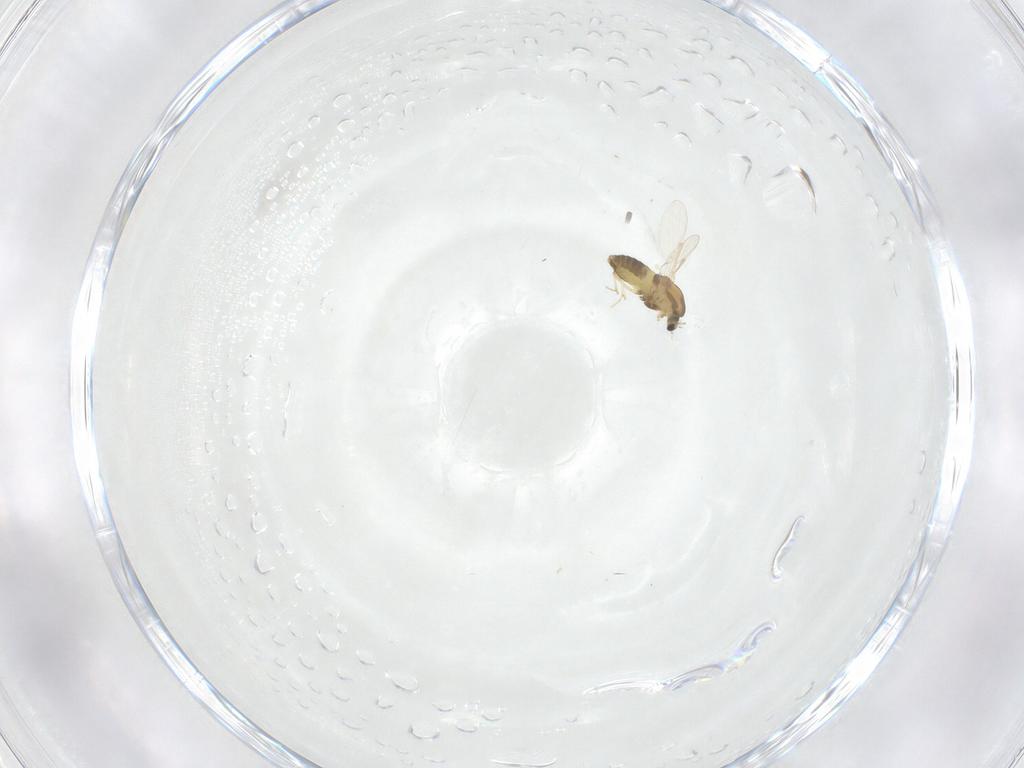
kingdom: Animalia
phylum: Arthropoda
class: Insecta
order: Diptera
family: Chironomidae
